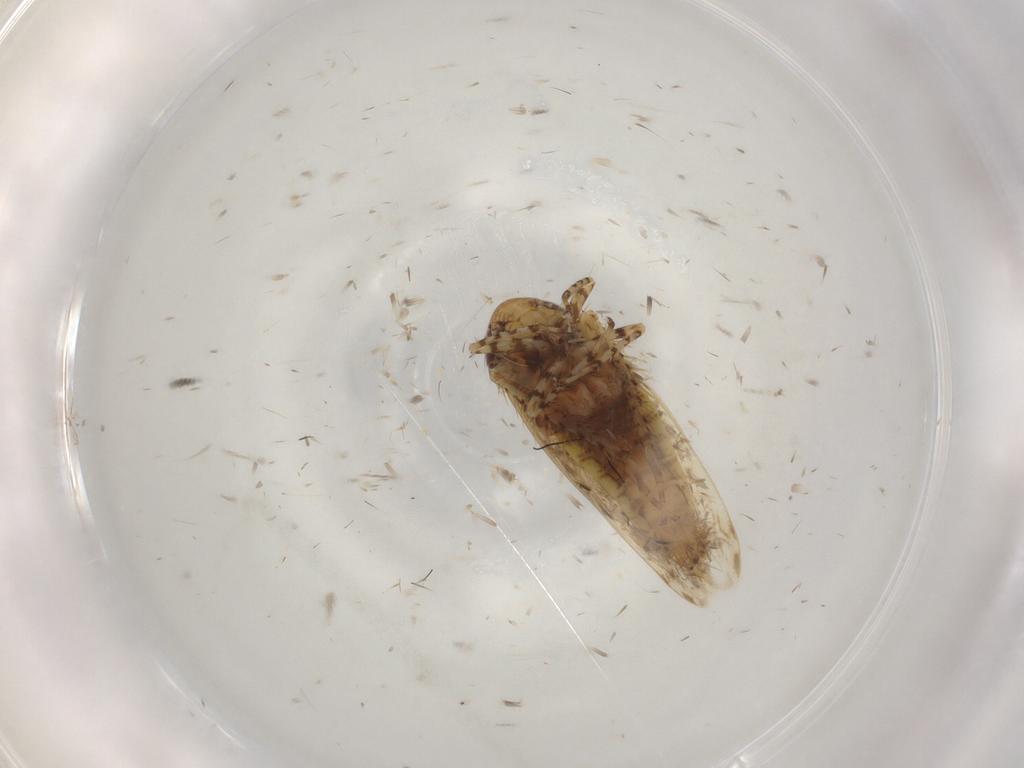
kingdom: Animalia
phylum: Arthropoda
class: Insecta
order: Hemiptera
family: Cicadellidae
